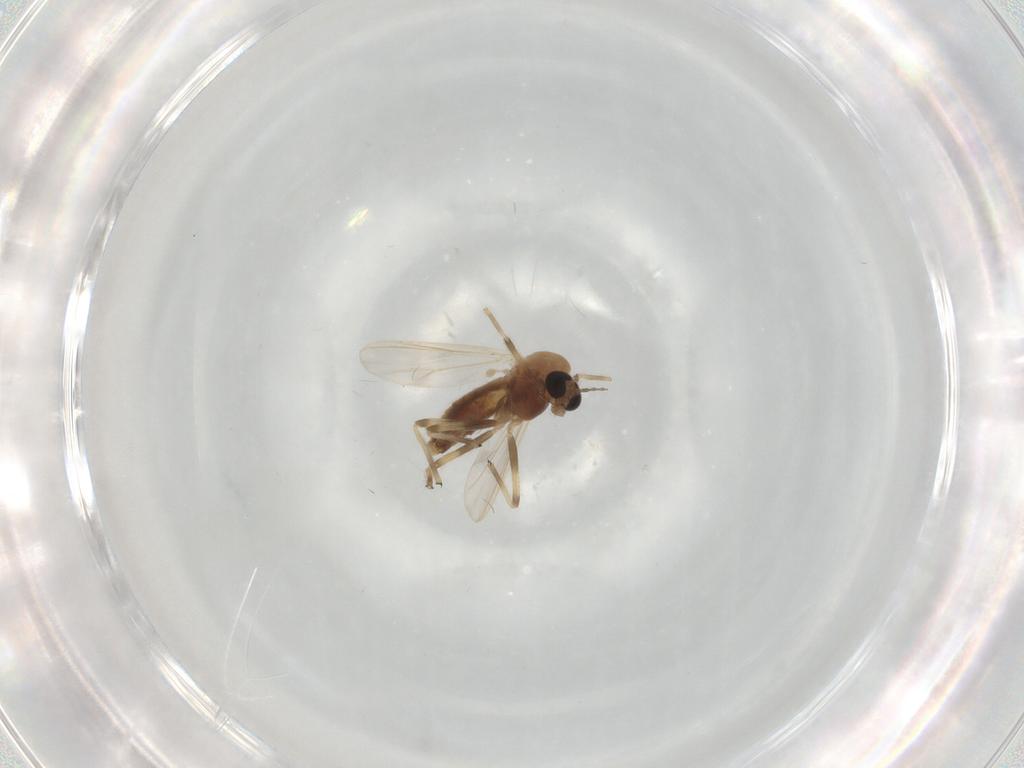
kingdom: Animalia
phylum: Arthropoda
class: Insecta
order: Diptera
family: Chironomidae
